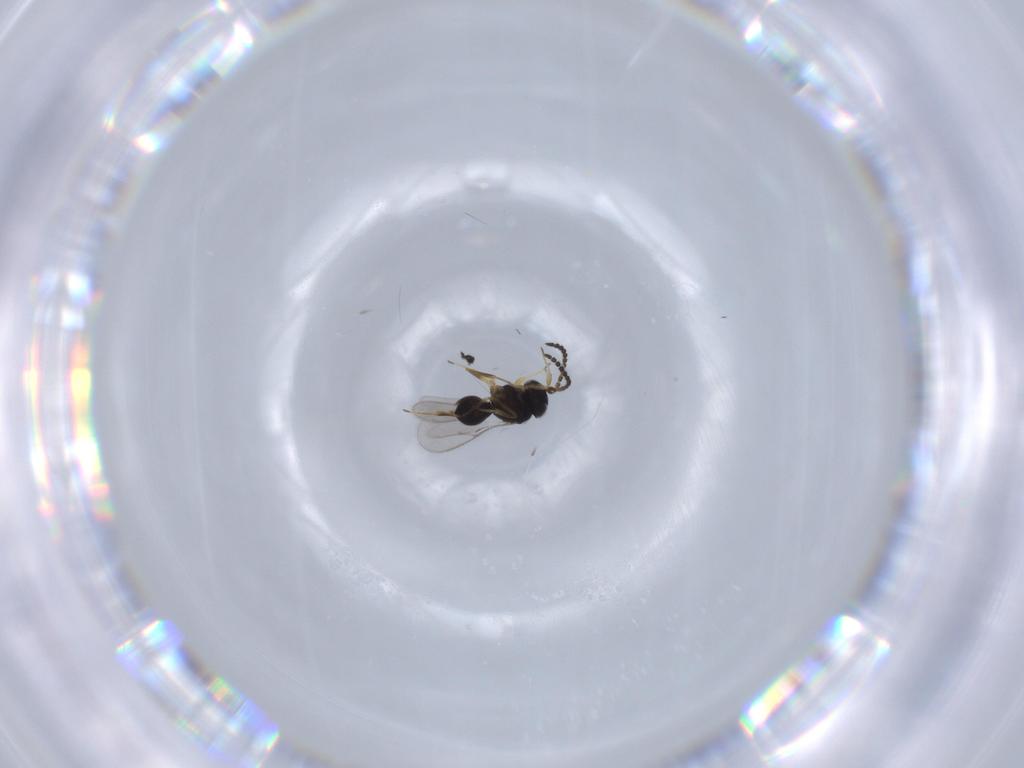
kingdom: Animalia
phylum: Arthropoda
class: Insecta
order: Hymenoptera
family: Scelionidae
